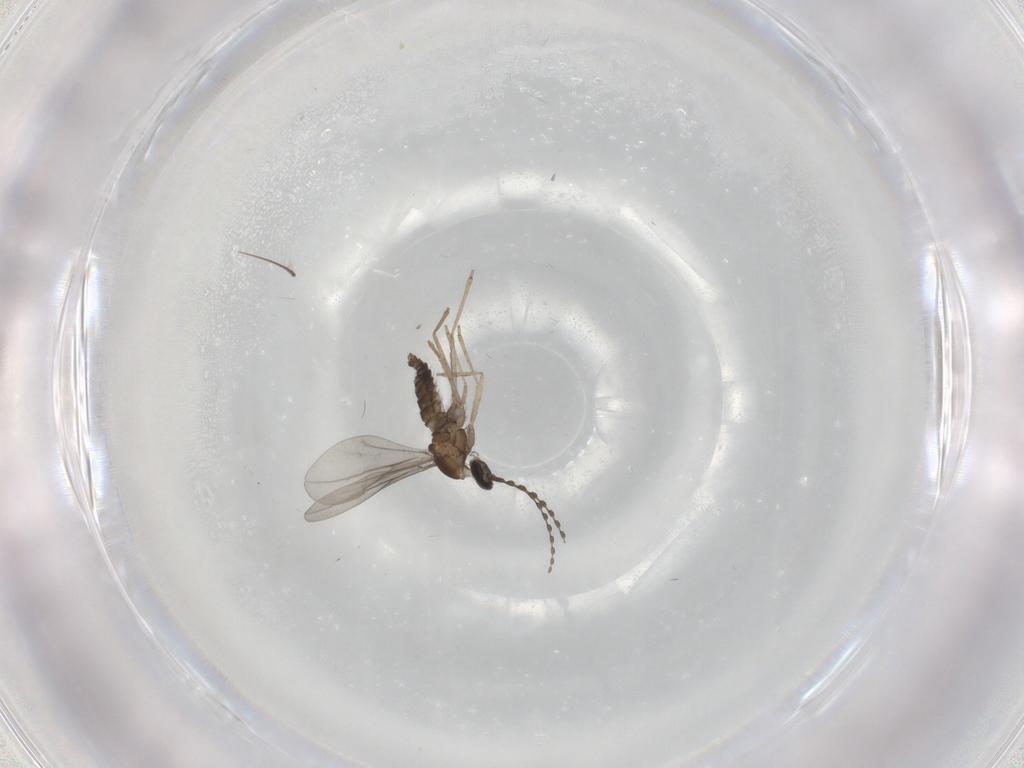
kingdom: Animalia
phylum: Arthropoda
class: Insecta
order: Diptera
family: Cecidomyiidae
